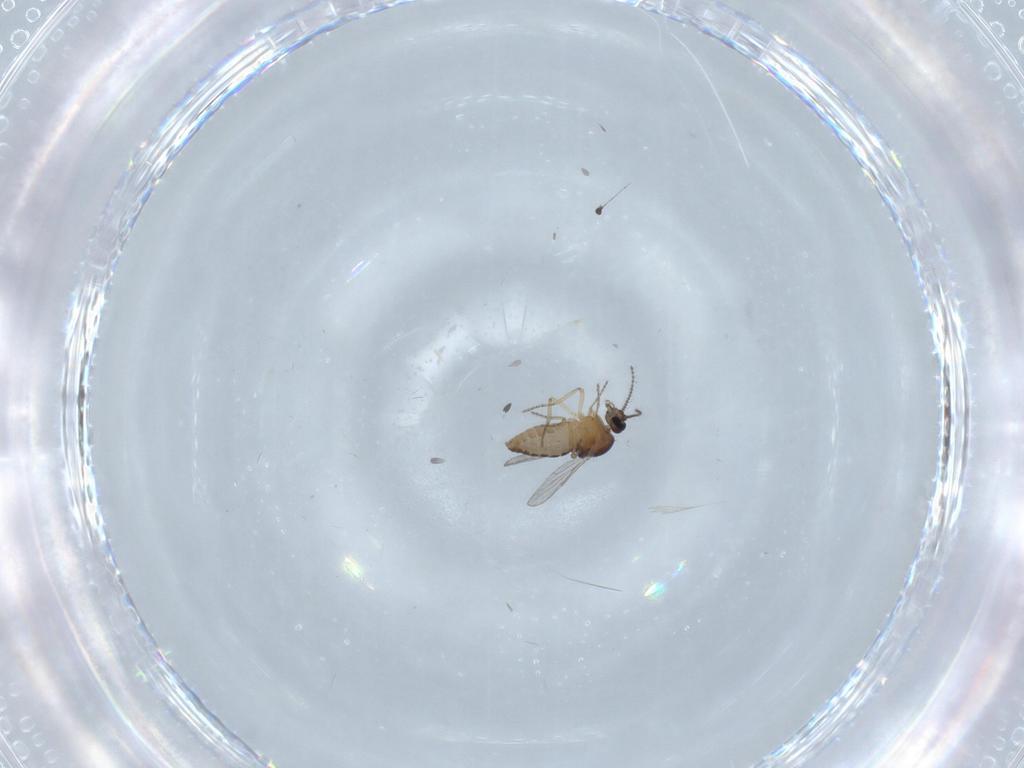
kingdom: Animalia
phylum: Arthropoda
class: Insecta
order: Diptera
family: Ceratopogonidae
